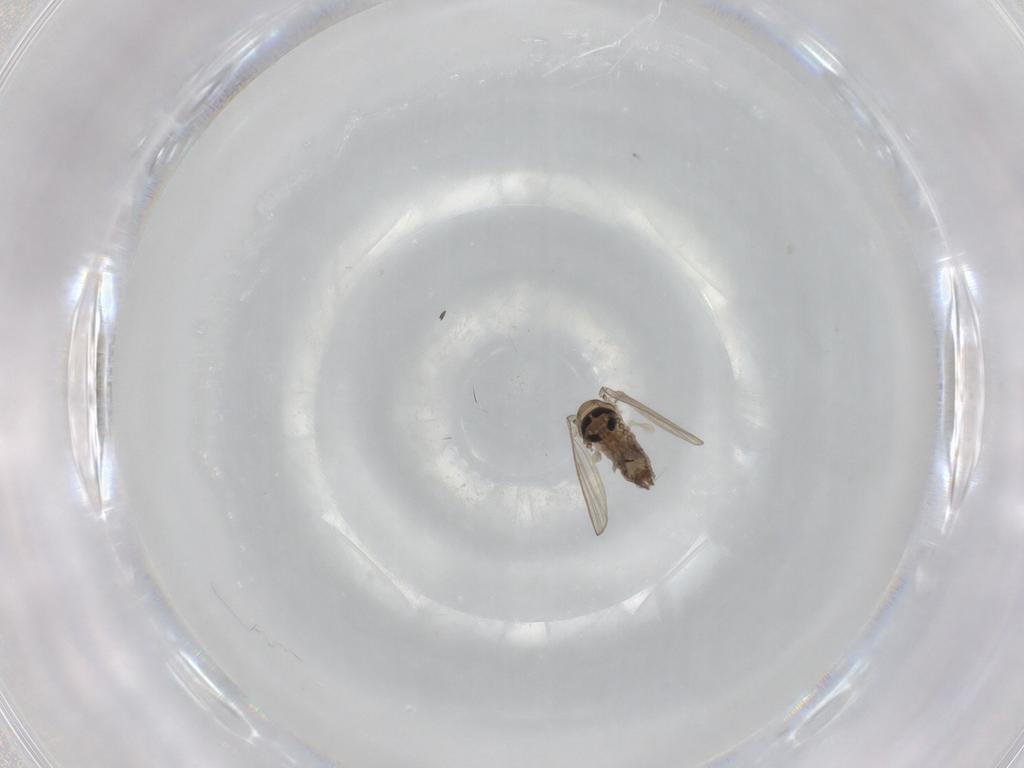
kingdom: Animalia
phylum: Arthropoda
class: Insecta
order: Diptera
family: Psychodidae
